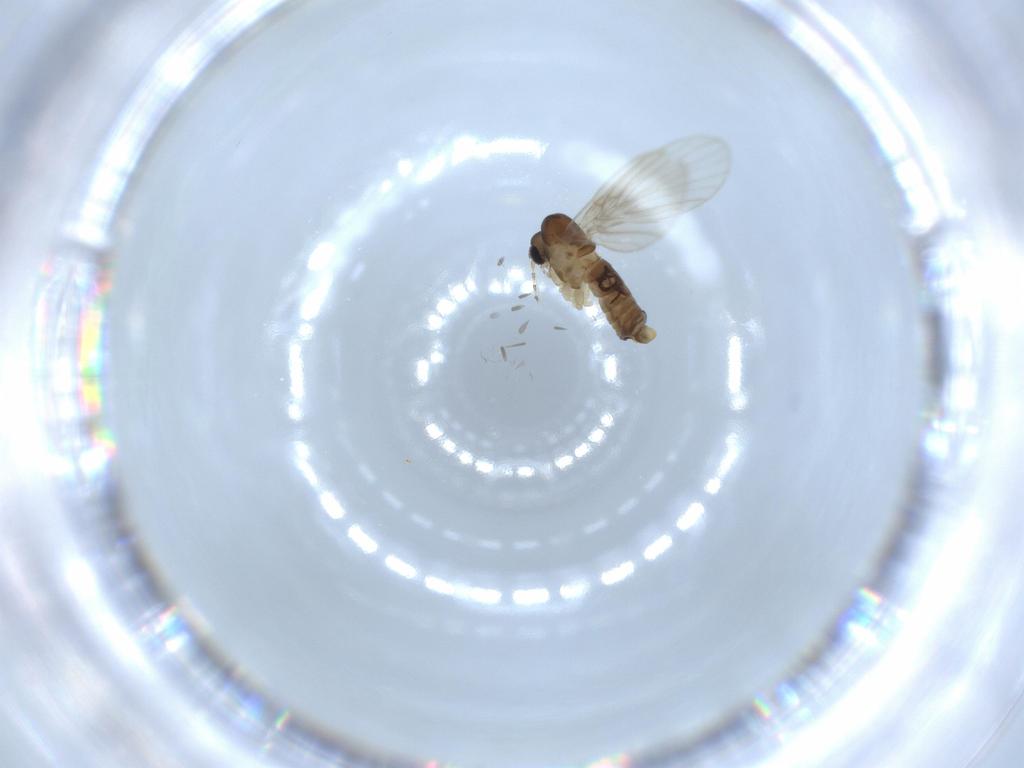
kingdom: Animalia
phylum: Arthropoda
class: Insecta
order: Diptera
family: Psychodidae
